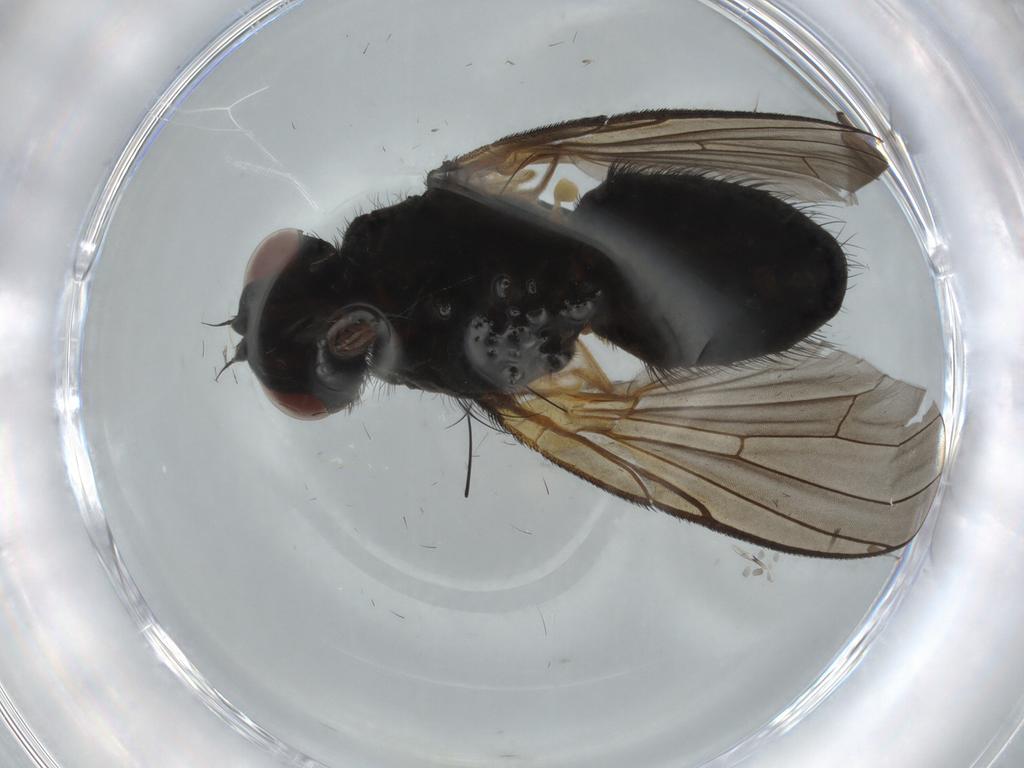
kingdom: Animalia
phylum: Arthropoda
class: Insecta
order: Diptera
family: Muscidae
